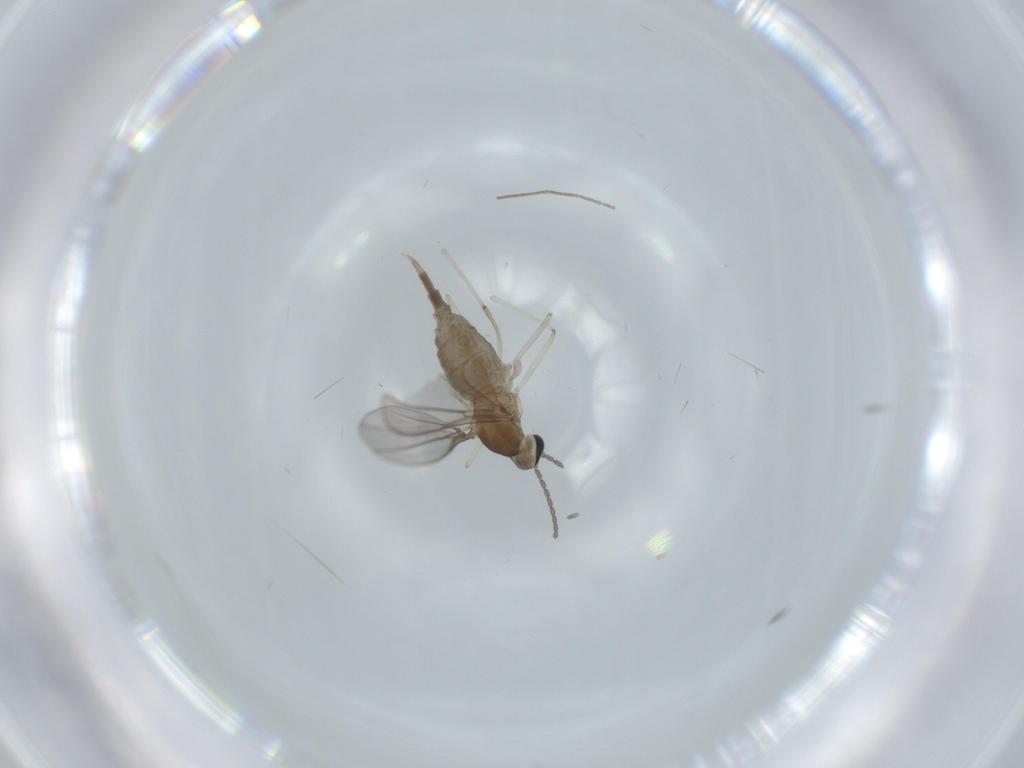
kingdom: Animalia
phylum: Arthropoda
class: Insecta
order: Diptera
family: Cecidomyiidae
